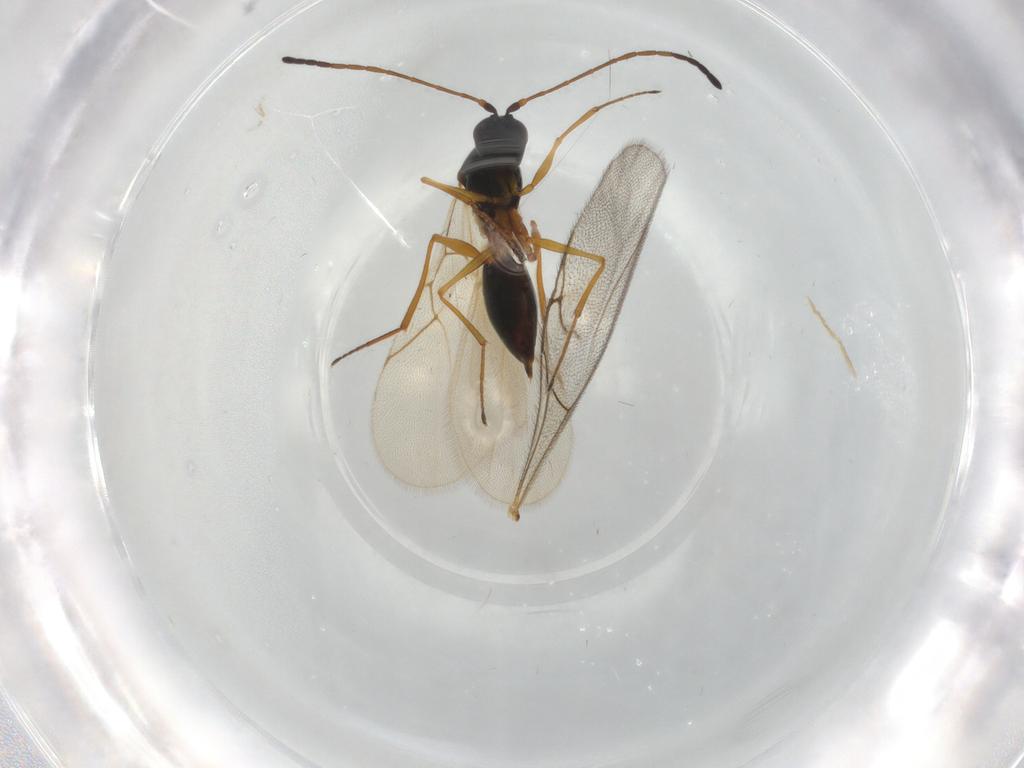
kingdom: Animalia
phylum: Arthropoda
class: Insecta
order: Hymenoptera
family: Figitidae
